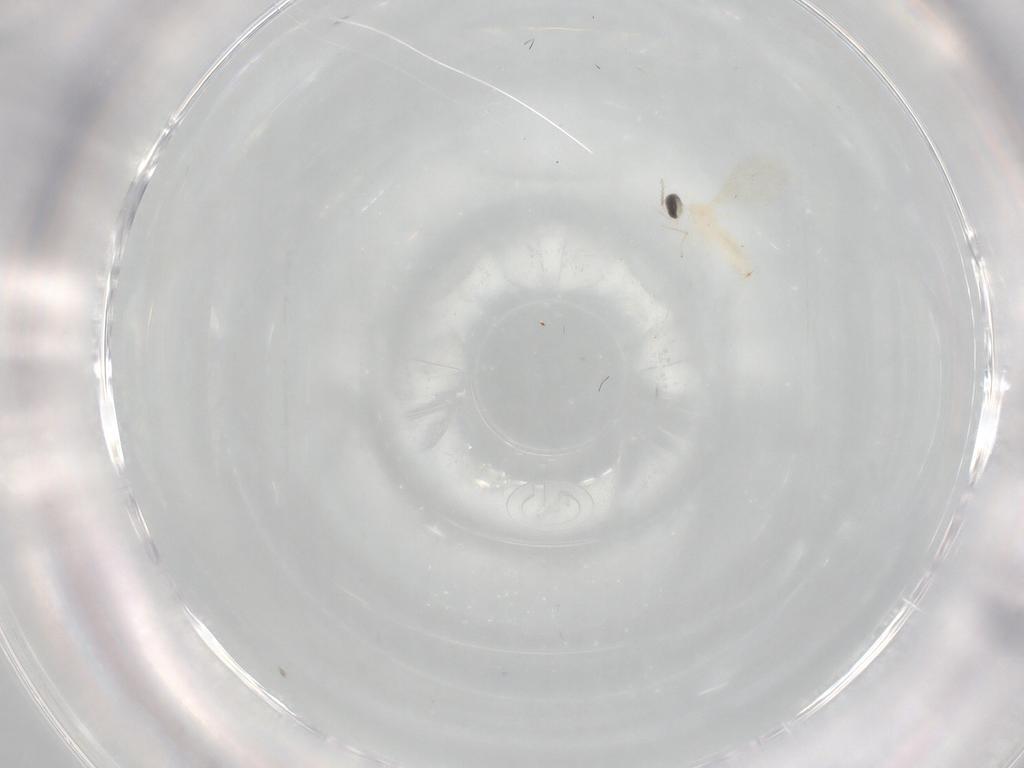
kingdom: Animalia
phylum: Arthropoda
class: Insecta
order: Diptera
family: Cecidomyiidae
